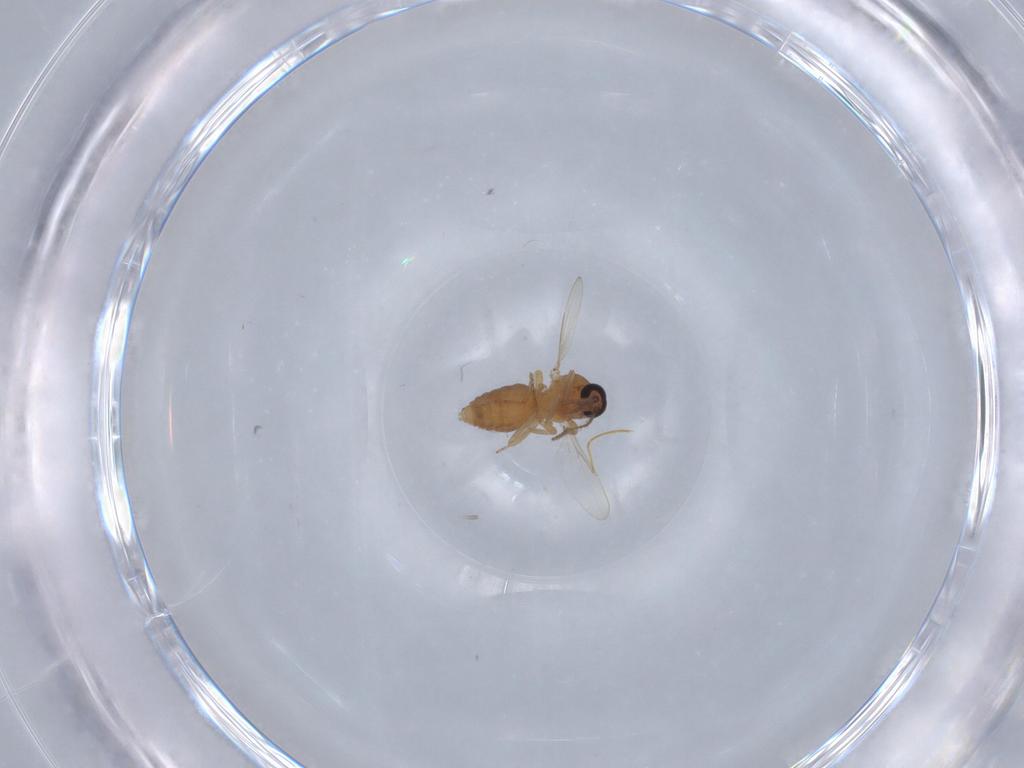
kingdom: Animalia
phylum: Arthropoda
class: Insecta
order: Diptera
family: Ceratopogonidae
